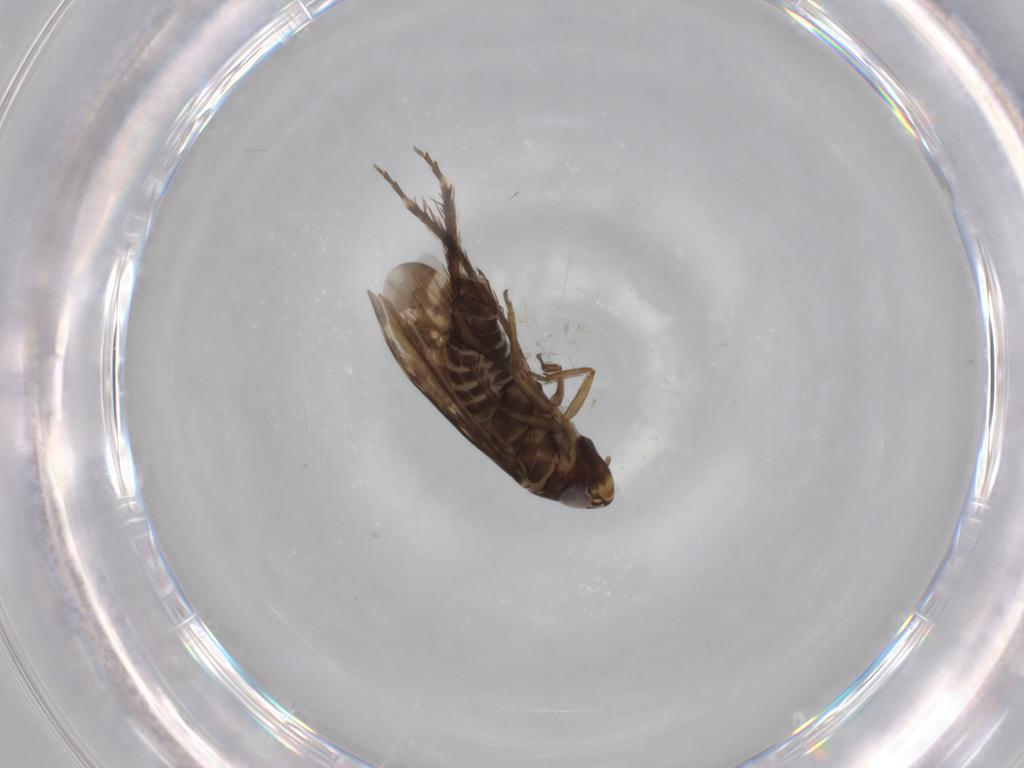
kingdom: Animalia
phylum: Arthropoda
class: Insecta
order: Hemiptera
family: Cicadellidae
